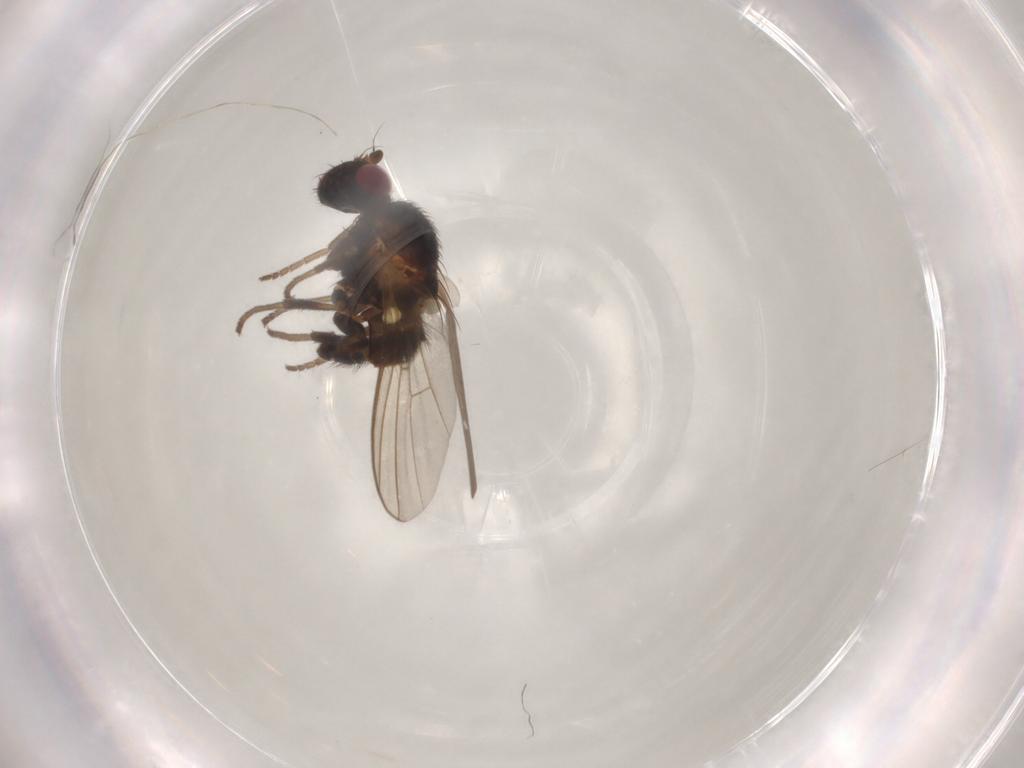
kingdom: Animalia
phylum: Arthropoda
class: Insecta
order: Diptera
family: Agromyzidae
